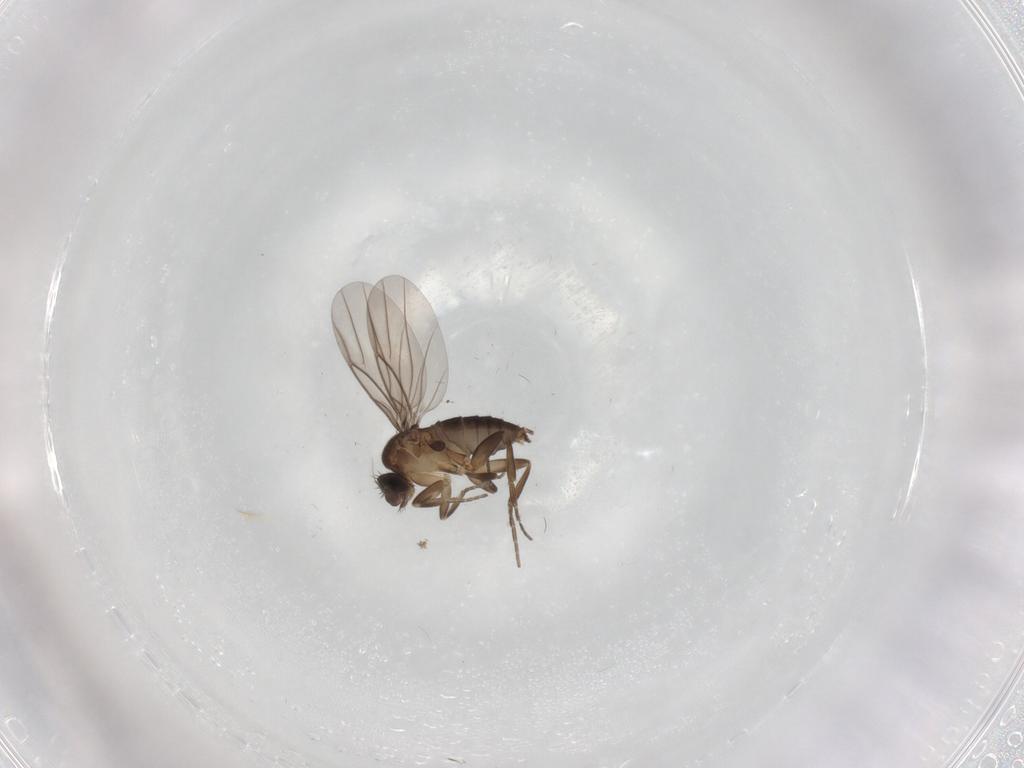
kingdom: Animalia
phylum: Arthropoda
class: Insecta
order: Diptera
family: Phoridae
